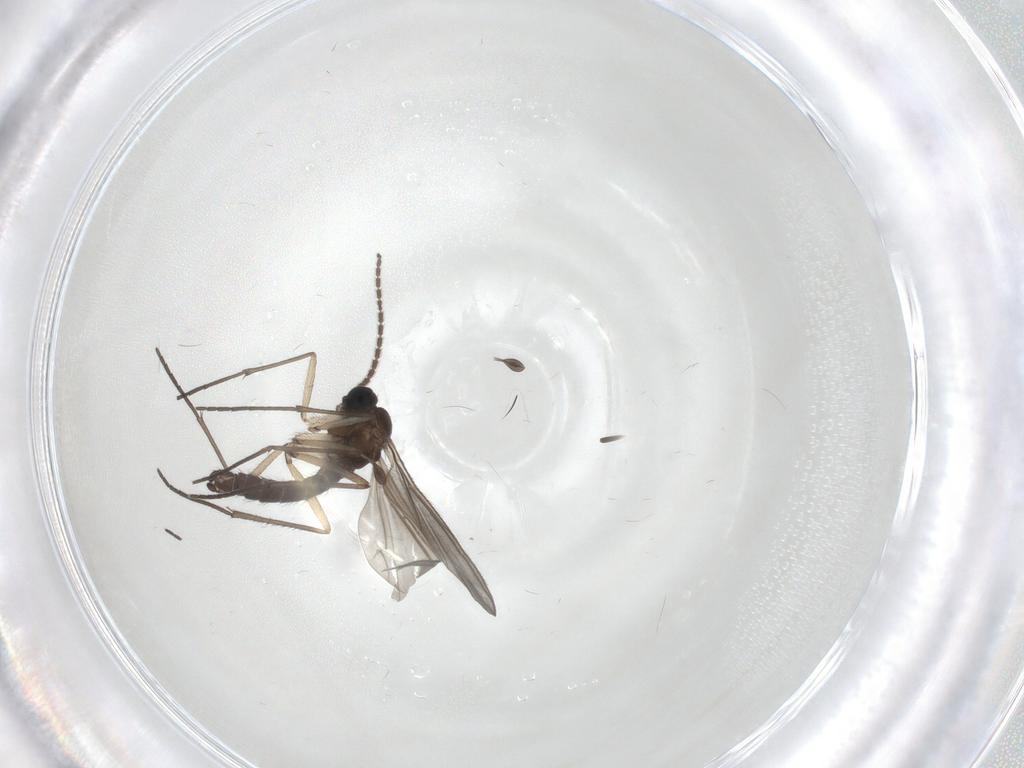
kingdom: Animalia
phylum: Arthropoda
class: Insecta
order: Diptera
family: Sciaridae
